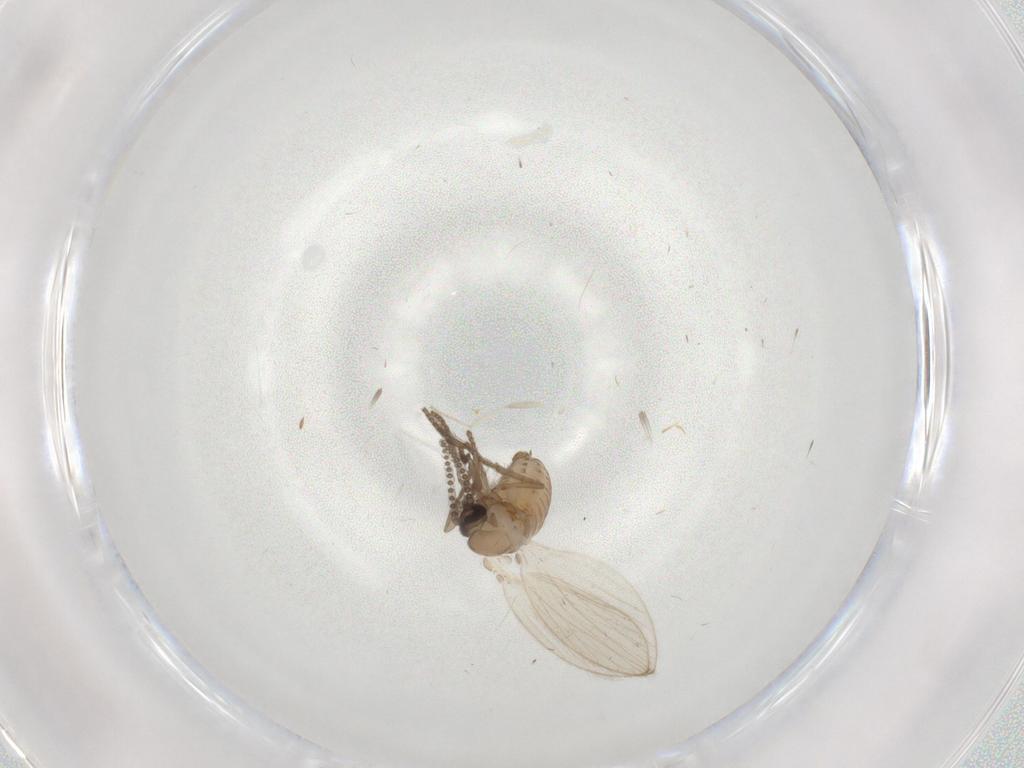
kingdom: Animalia
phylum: Arthropoda
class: Insecta
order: Diptera
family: Psychodidae
